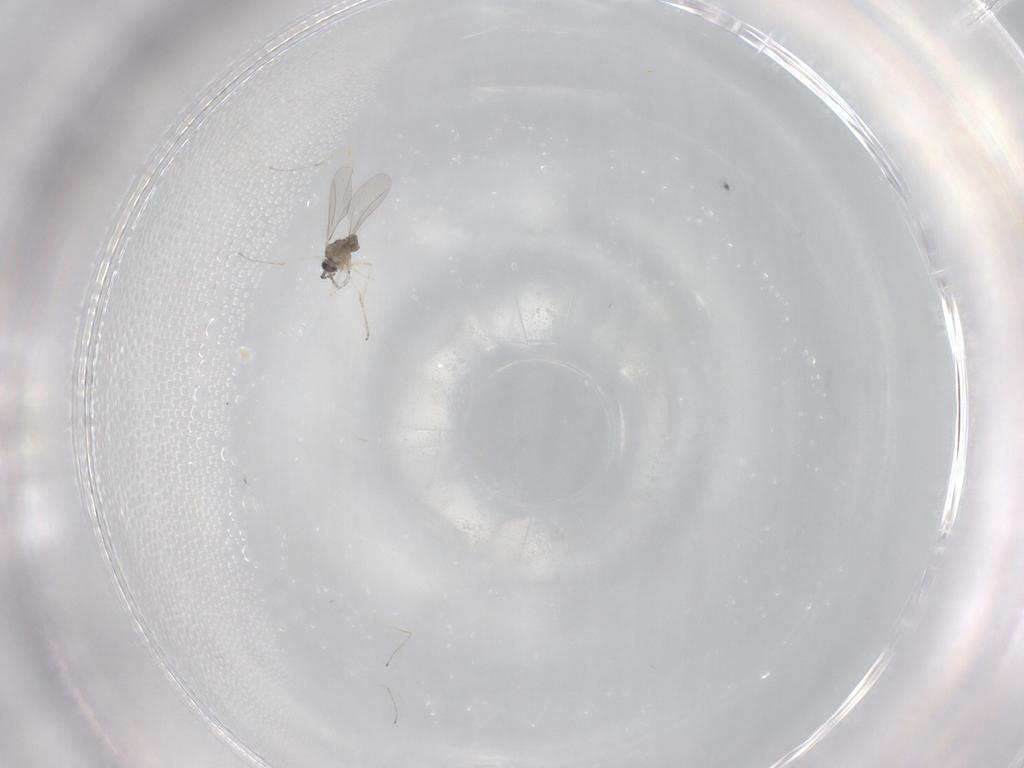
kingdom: Animalia
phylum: Arthropoda
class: Insecta
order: Diptera
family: Cecidomyiidae
